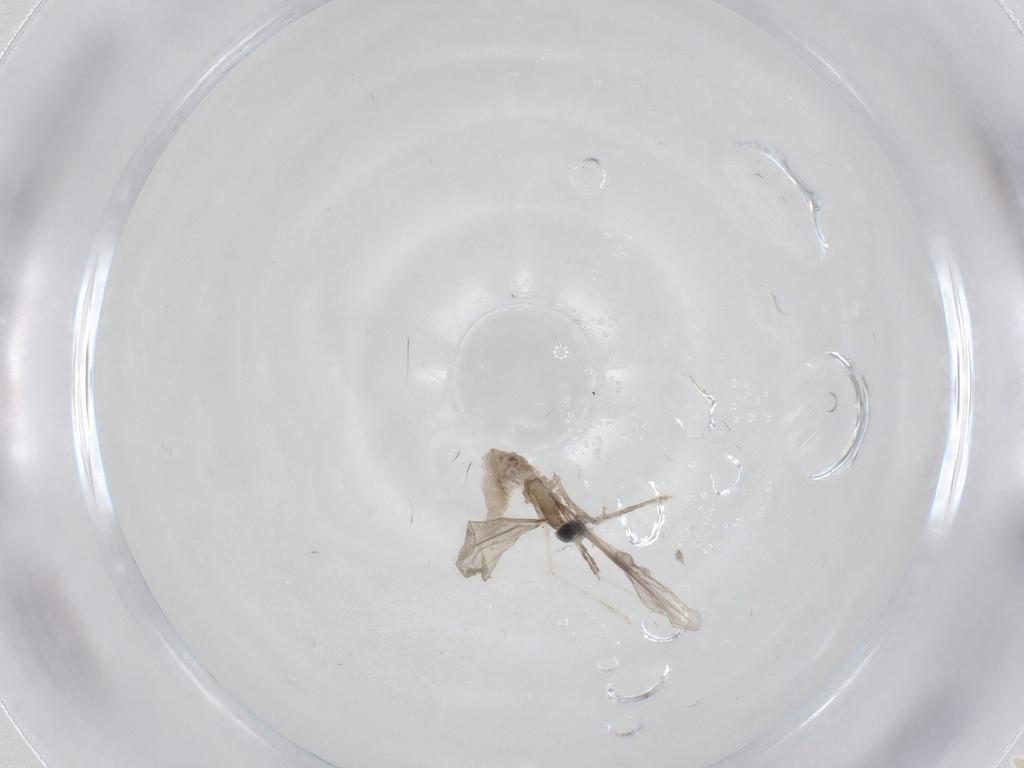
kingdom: Animalia
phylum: Arthropoda
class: Insecta
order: Diptera
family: Cecidomyiidae
